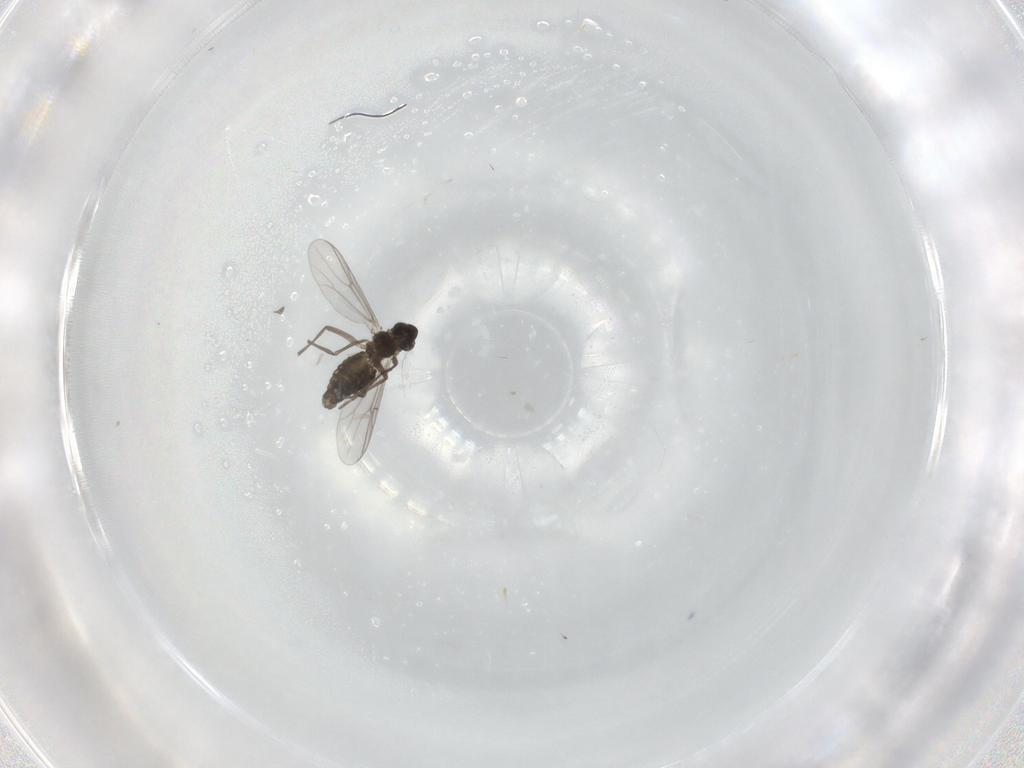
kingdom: Animalia
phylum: Arthropoda
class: Insecta
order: Diptera
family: Chironomidae
